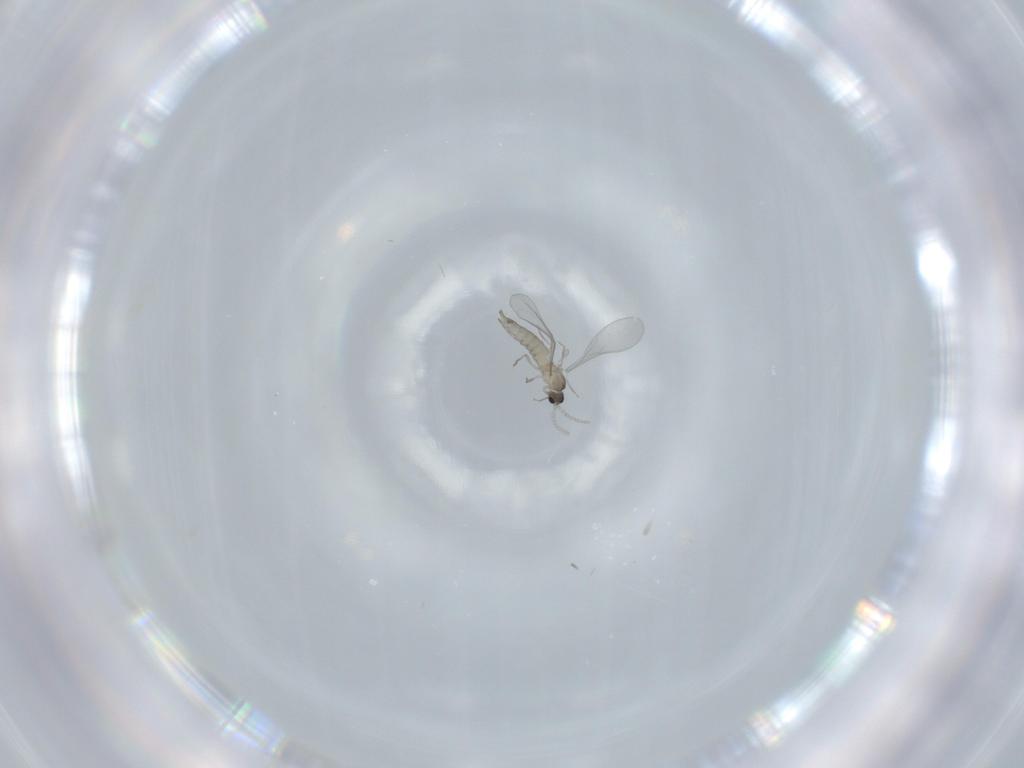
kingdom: Animalia
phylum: Arthropoda
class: Insecta
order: Diptera
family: Cecidomyiidae
